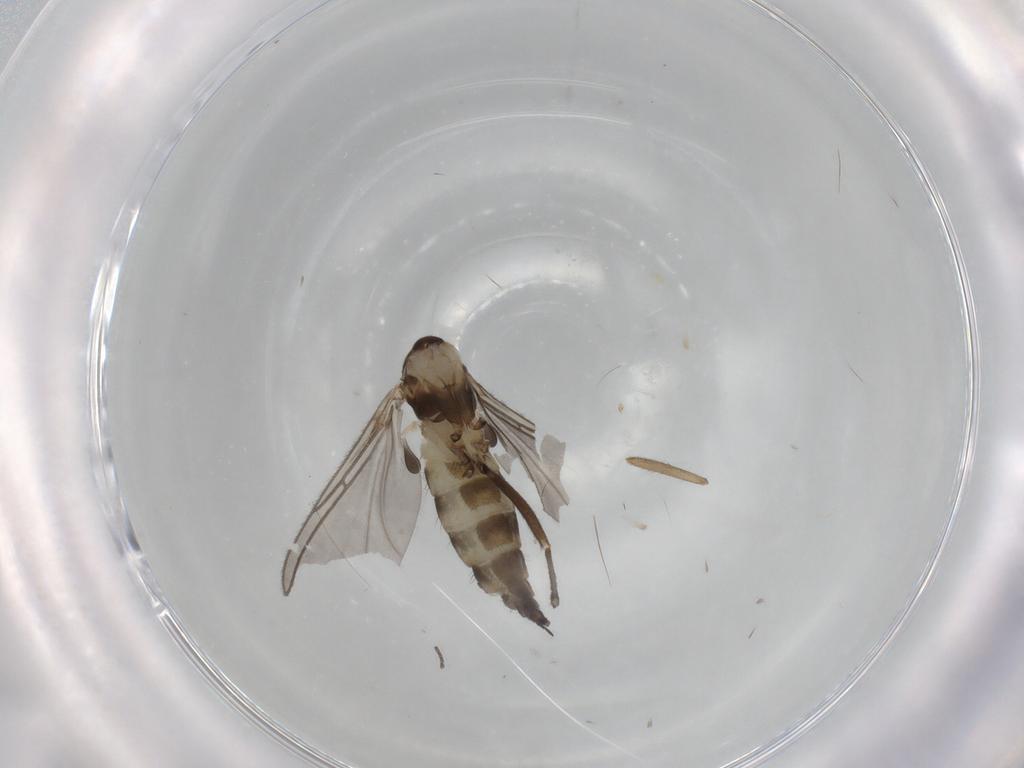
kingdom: Animalia
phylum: Arthropoda
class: Insecta
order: Diptera
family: Sciaridae
